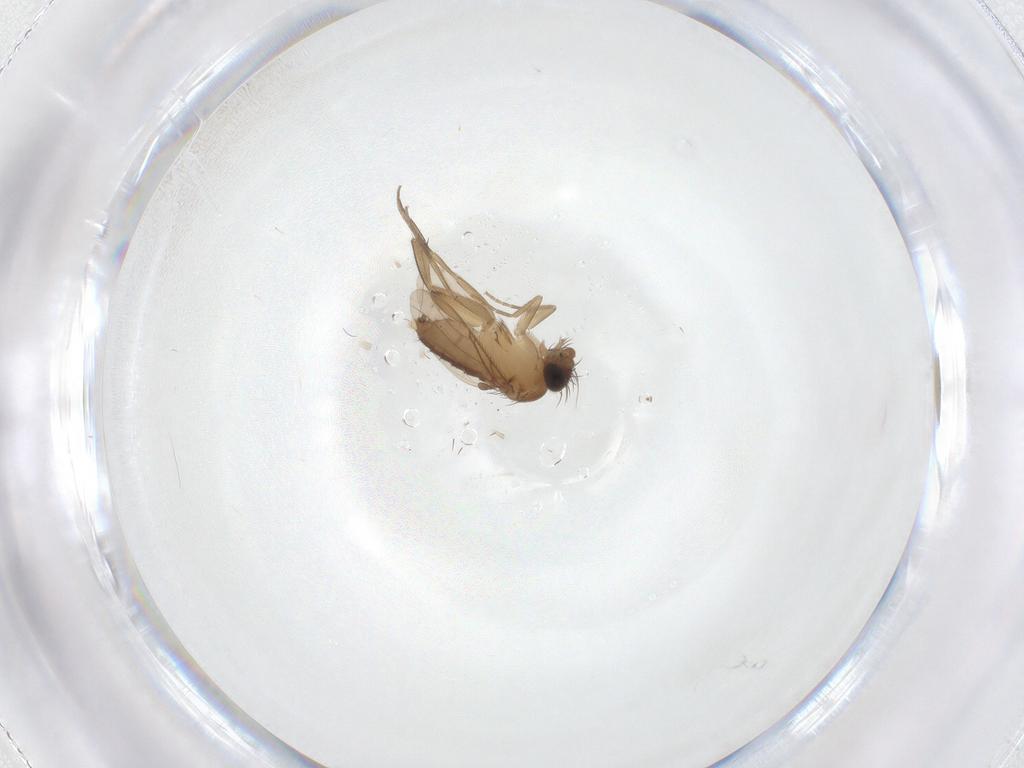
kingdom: Animalia
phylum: Arthropoda
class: Insecta
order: Diptera
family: Phoridae
